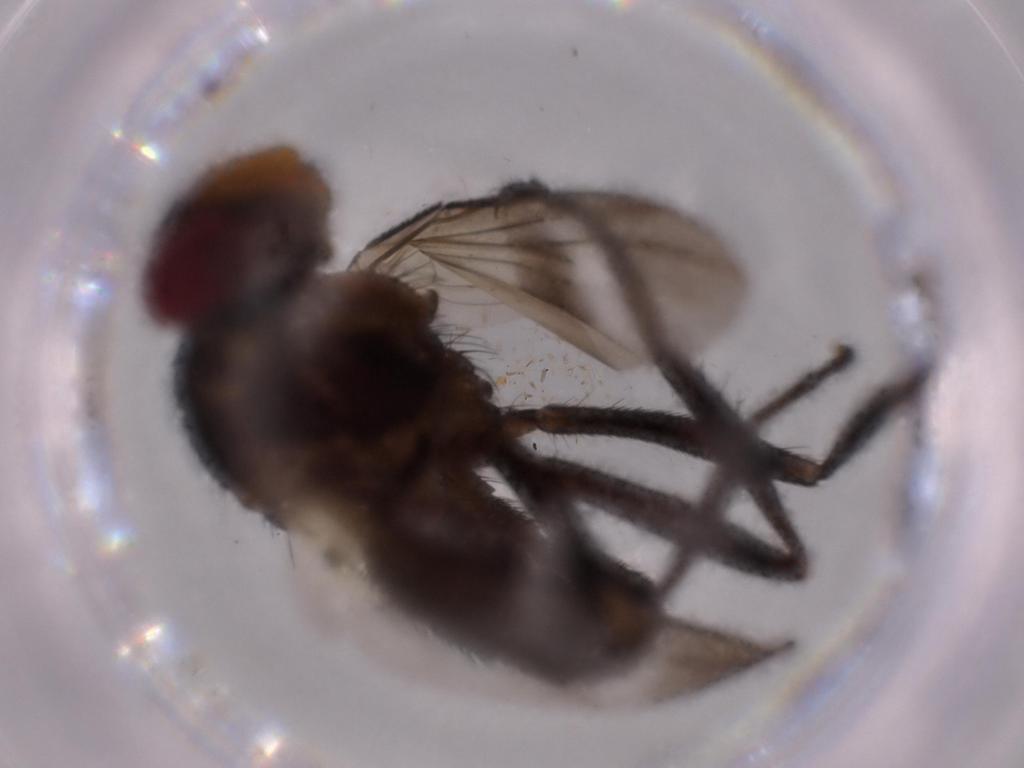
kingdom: Animalia
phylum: Arthropoda
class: Insecta
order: Diptera
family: Calliphoridae
